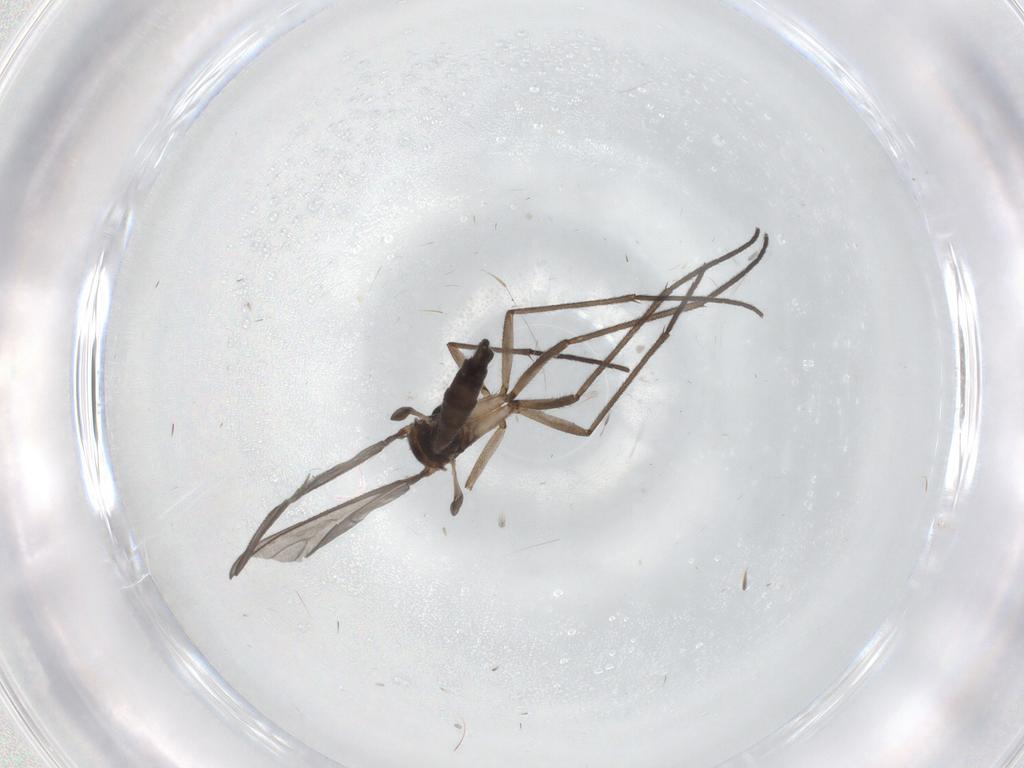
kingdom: Animalia
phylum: Arthropoda
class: Insecta
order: Diptera
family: Sciaridae
